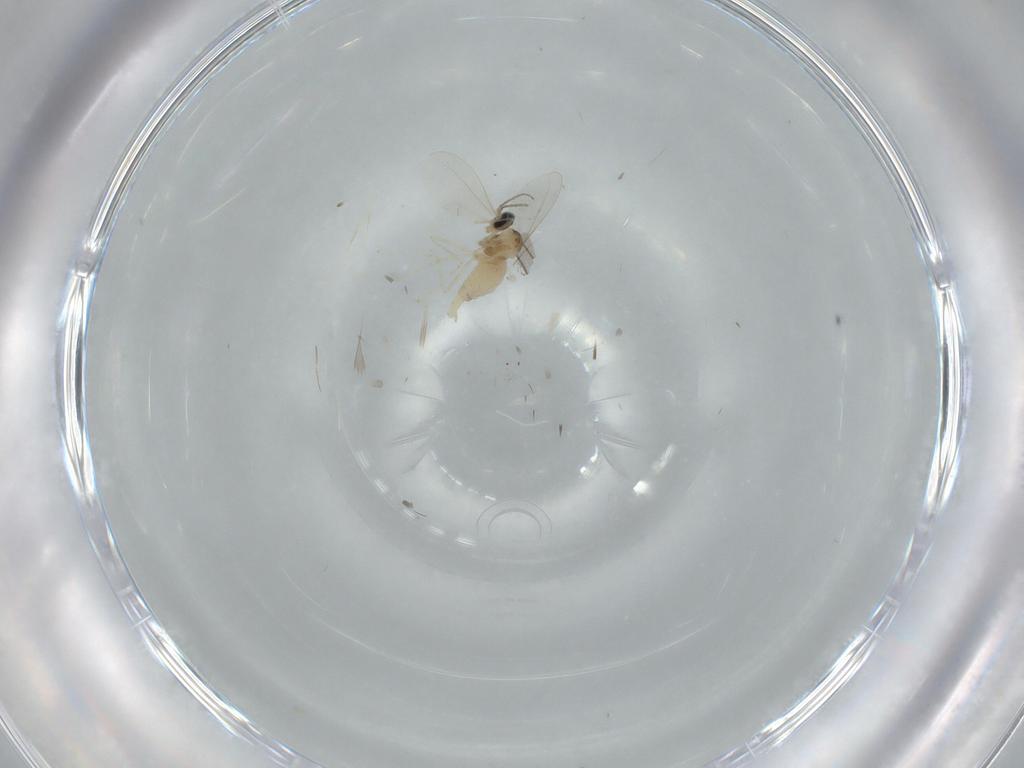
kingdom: Animalia
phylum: Arthropoda
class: Insecta
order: Diptera
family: Cecidomyiidae
